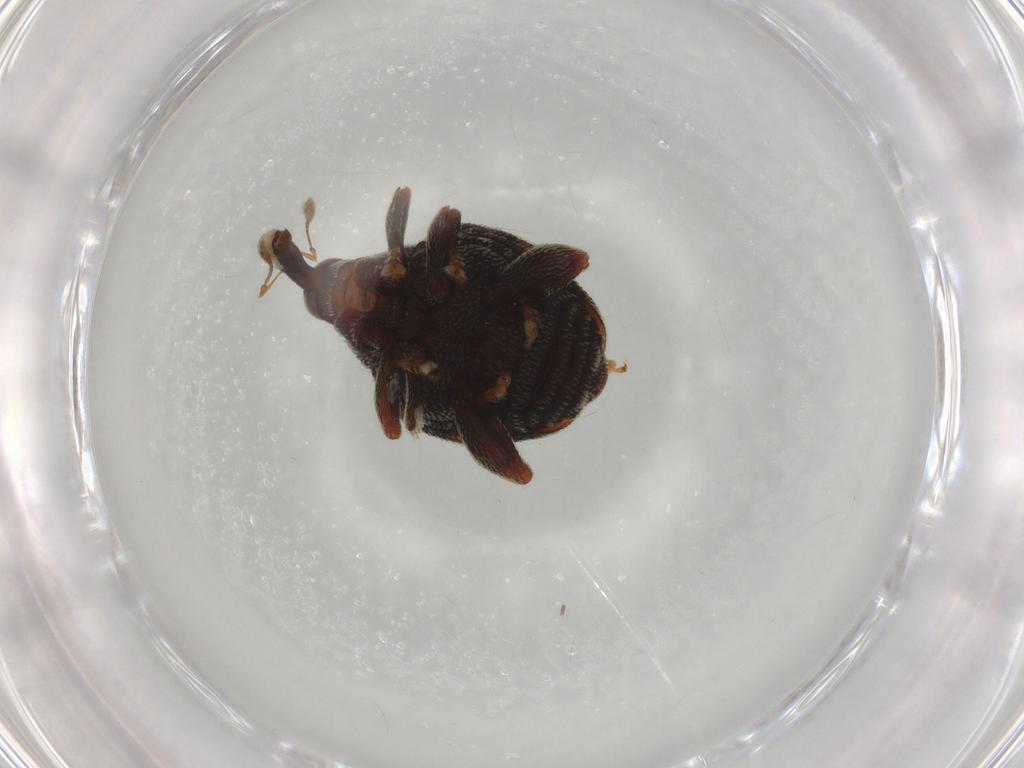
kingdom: Animalia
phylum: Arthropoda
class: Insecta
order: Coleoptera
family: Curculionidae
